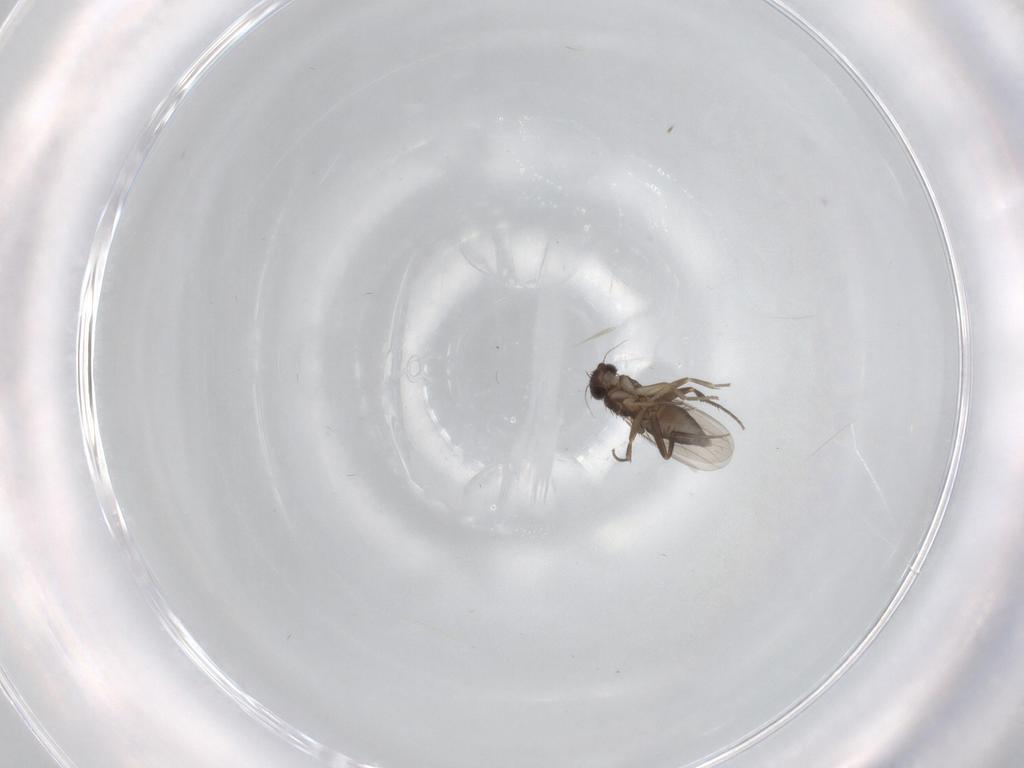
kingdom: Animalia
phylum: Arthropoda
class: Insecta
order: Diptera
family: Phoridae
